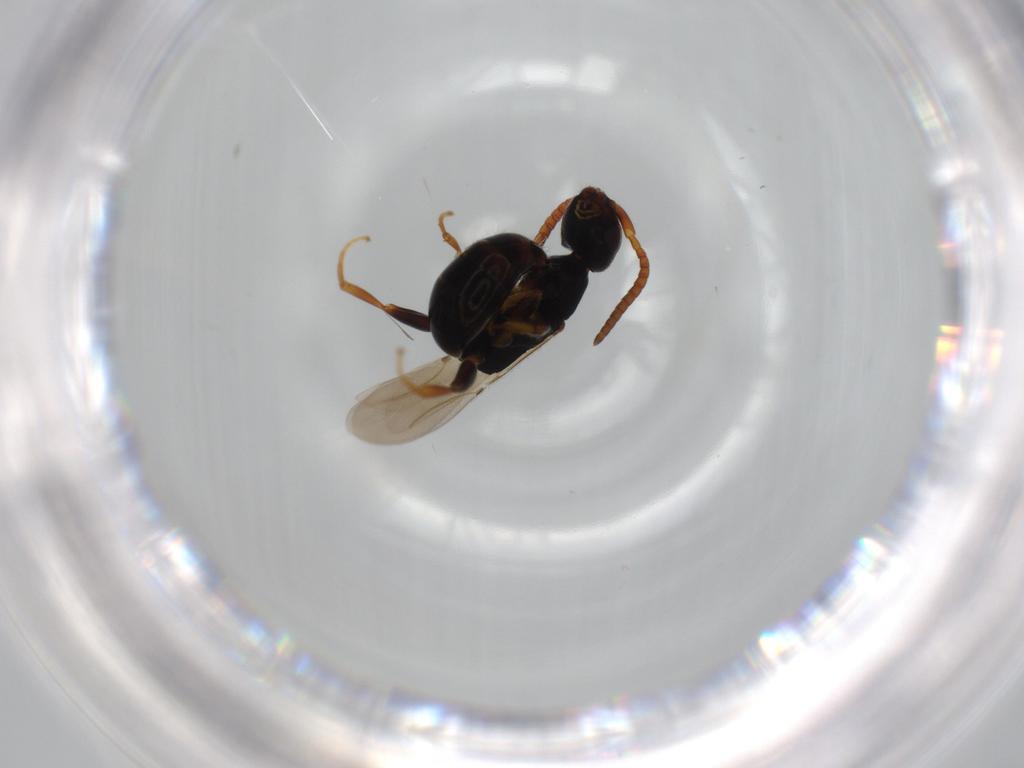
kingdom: Animalia
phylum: Arthropoda
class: Insecta
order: Hymenoptera
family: Bethylidae
